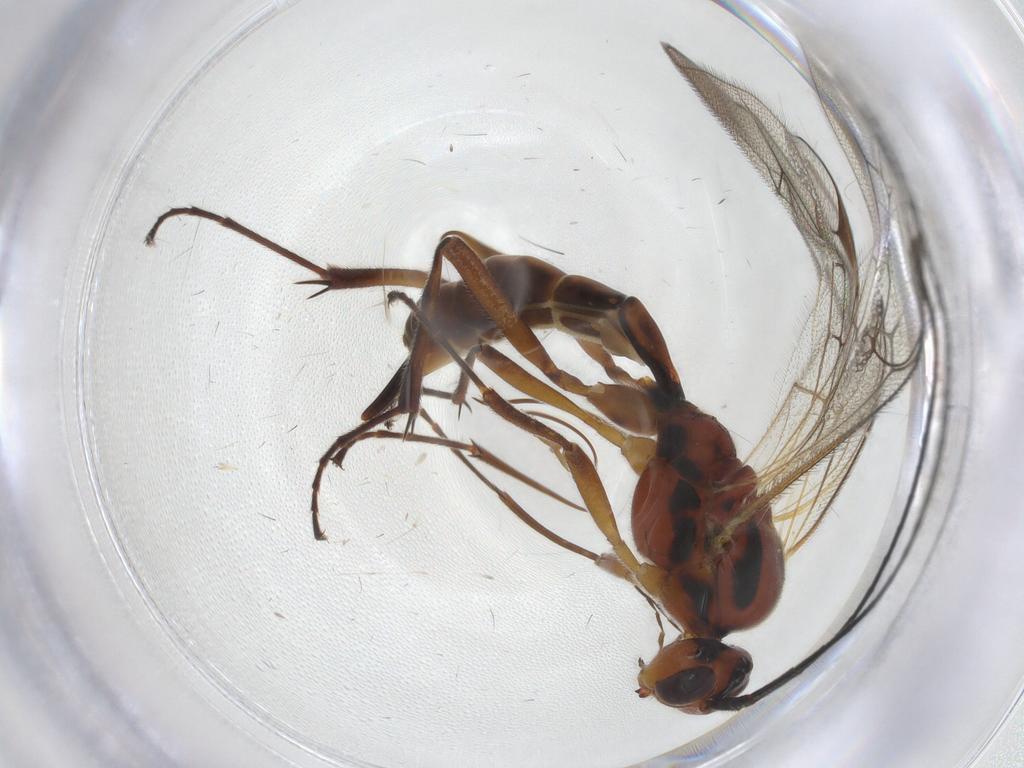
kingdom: Animalia
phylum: Arthropoda
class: Insecta
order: Hymenoptera
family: Ichneumonidae
